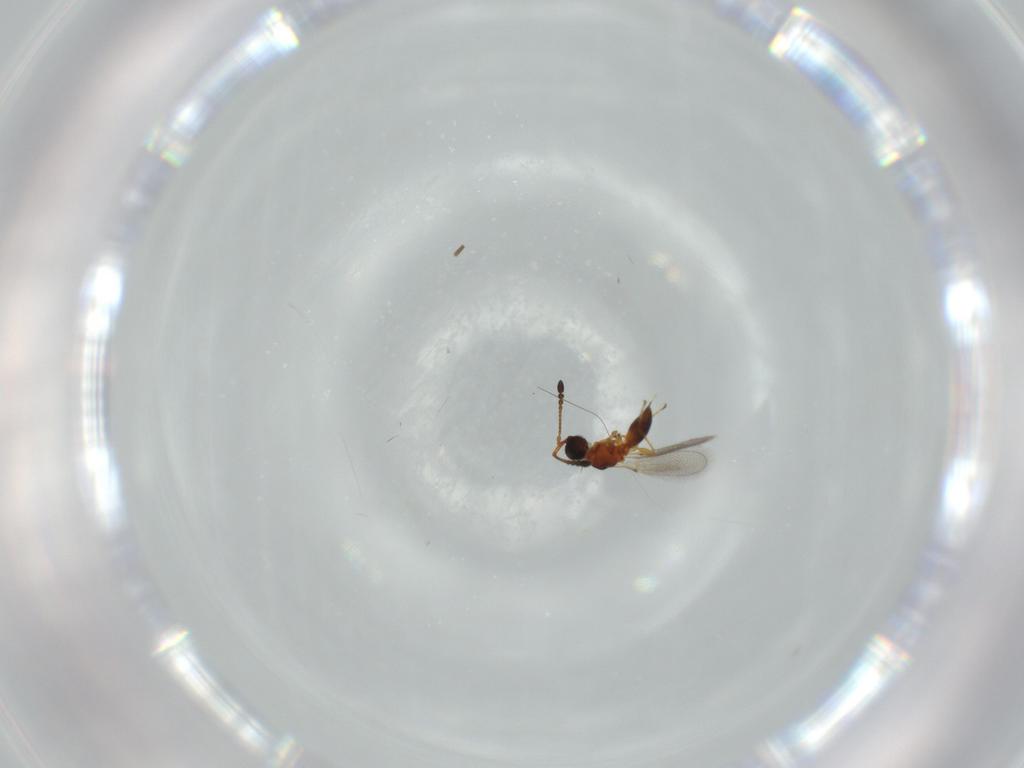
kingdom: Animalia
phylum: Arthropoda
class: Insecta
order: Hymenoptera
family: Diapriidae
